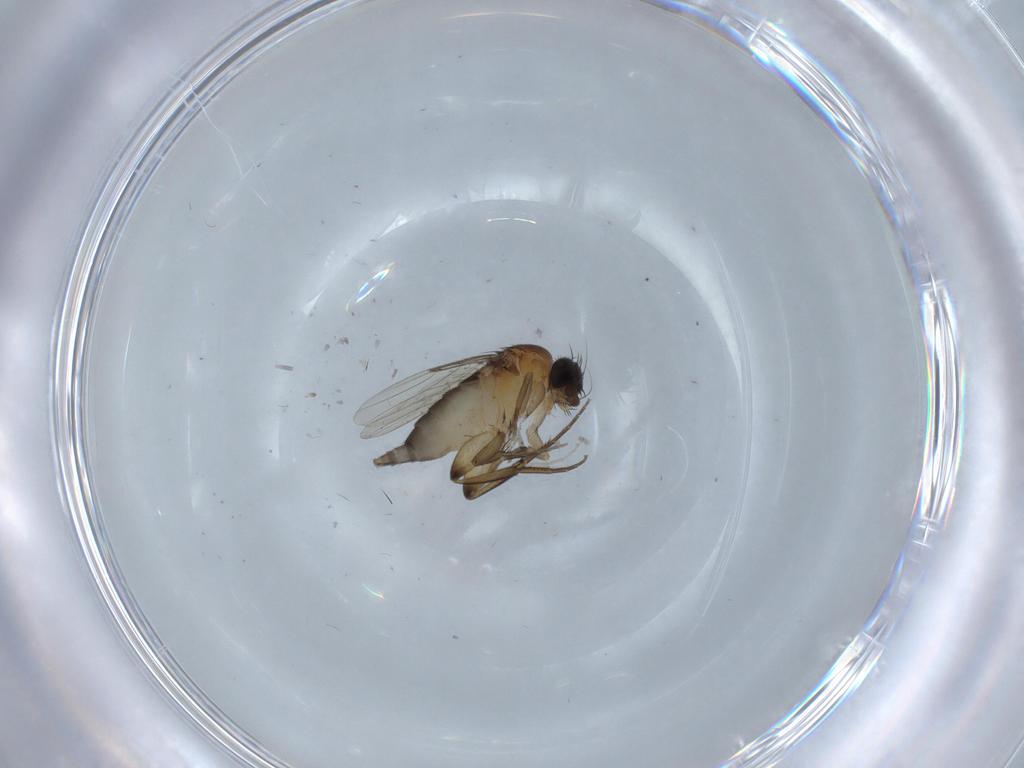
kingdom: Animalia
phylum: Arthropoda
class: Insecta
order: Diptera
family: Phoridae
